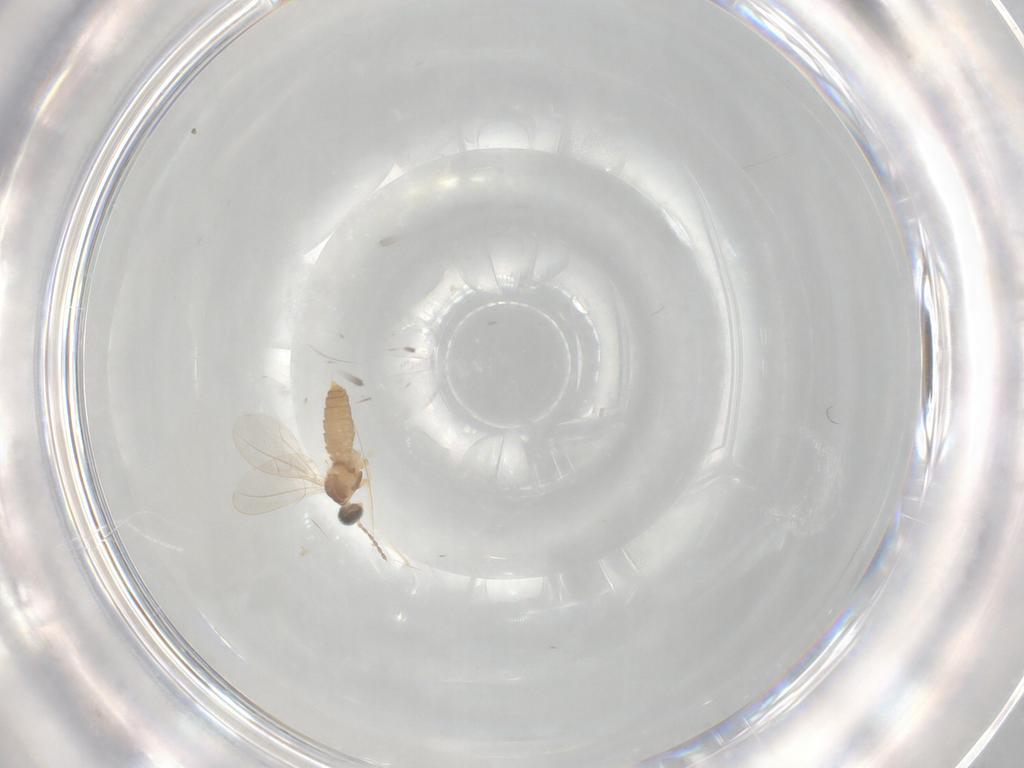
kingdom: Animalia
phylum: Arthropoda
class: Insecta
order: Diptera
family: Cecidomyiidae
